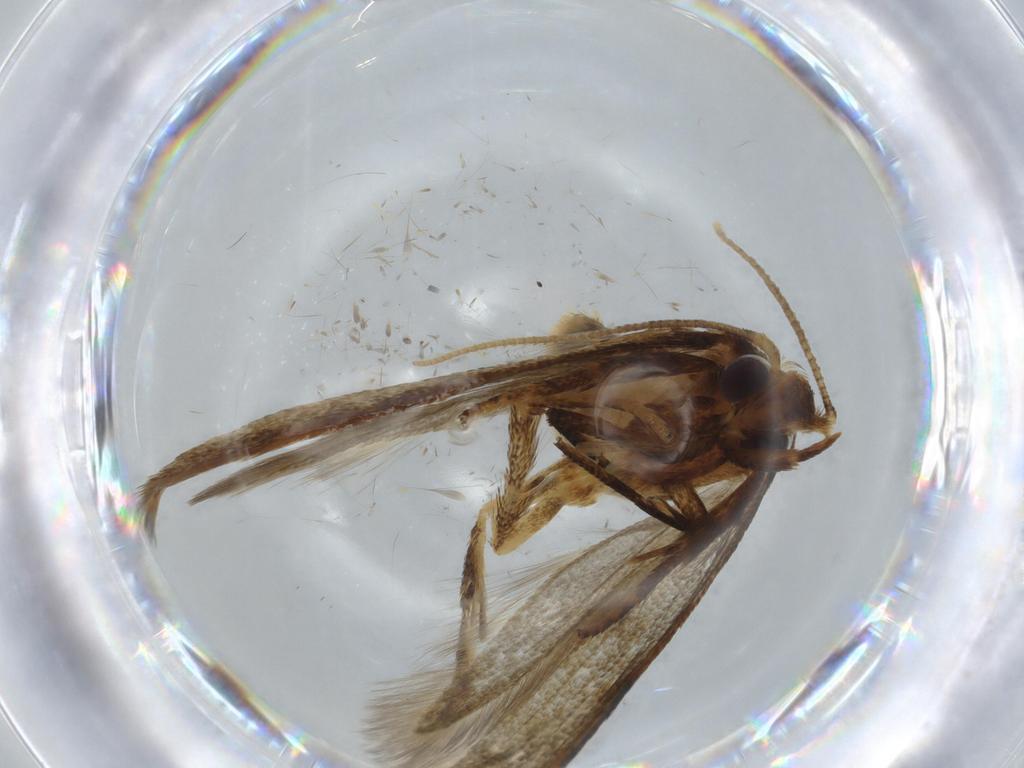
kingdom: Animalia
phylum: Arthropoda
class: Insecta
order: Lepidoptera
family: Coleophoridae
